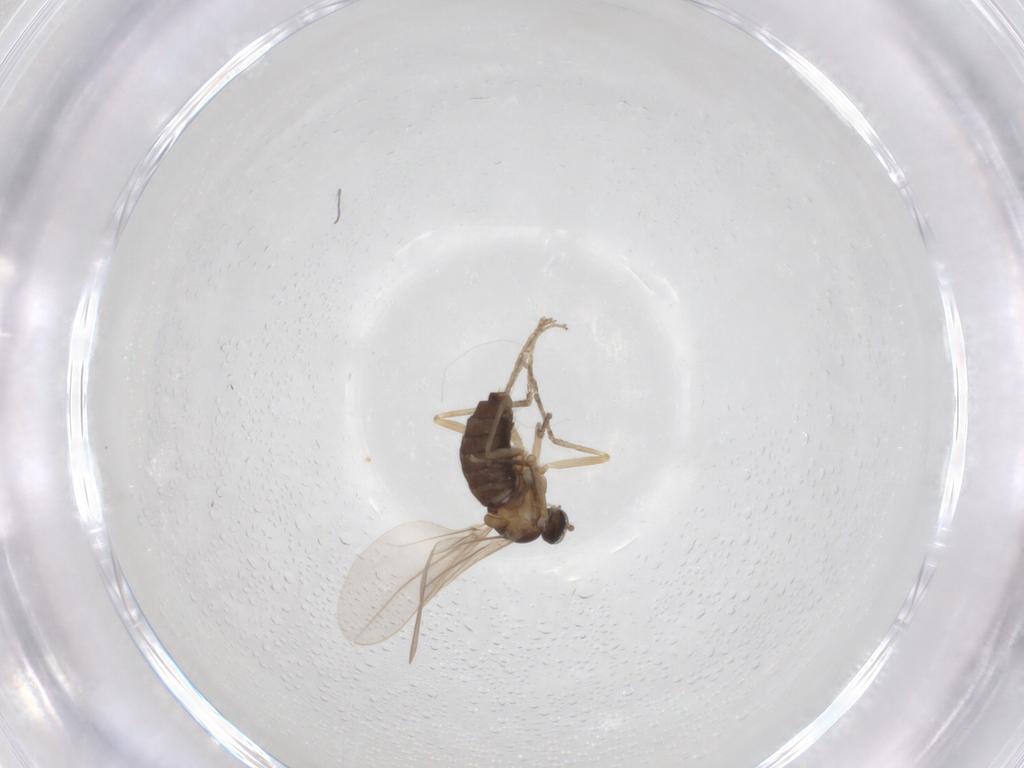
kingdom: Animalia
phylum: Arthropoda
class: Insecta
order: Diptera
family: Cecidomyiidae
